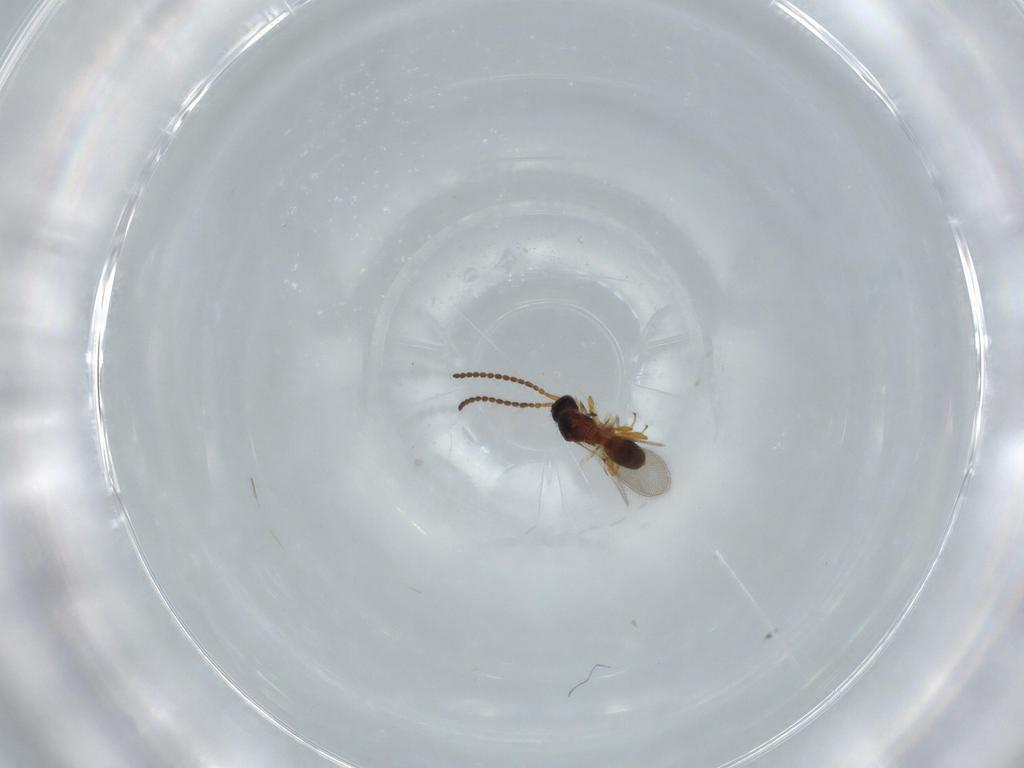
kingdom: Animalia
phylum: Arthropoda
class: Insecta
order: Hymenoptera
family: Diapriidae
